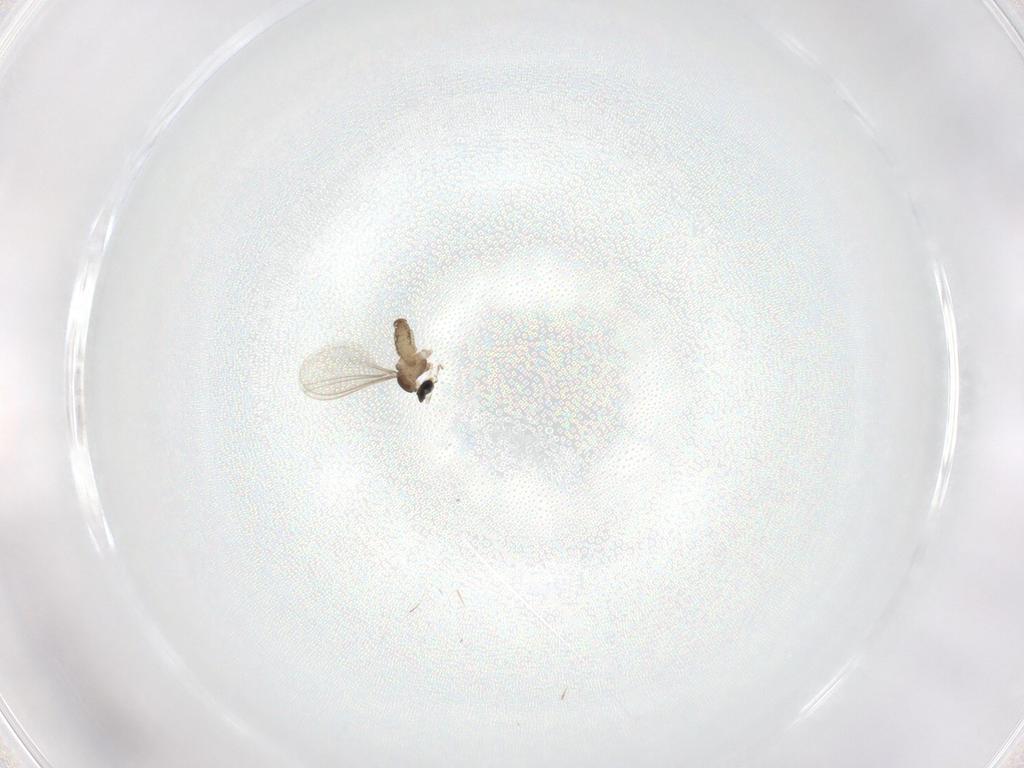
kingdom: Animalia
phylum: Arthropoda
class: Insecta
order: Diptera
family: Cecidomyiidae
